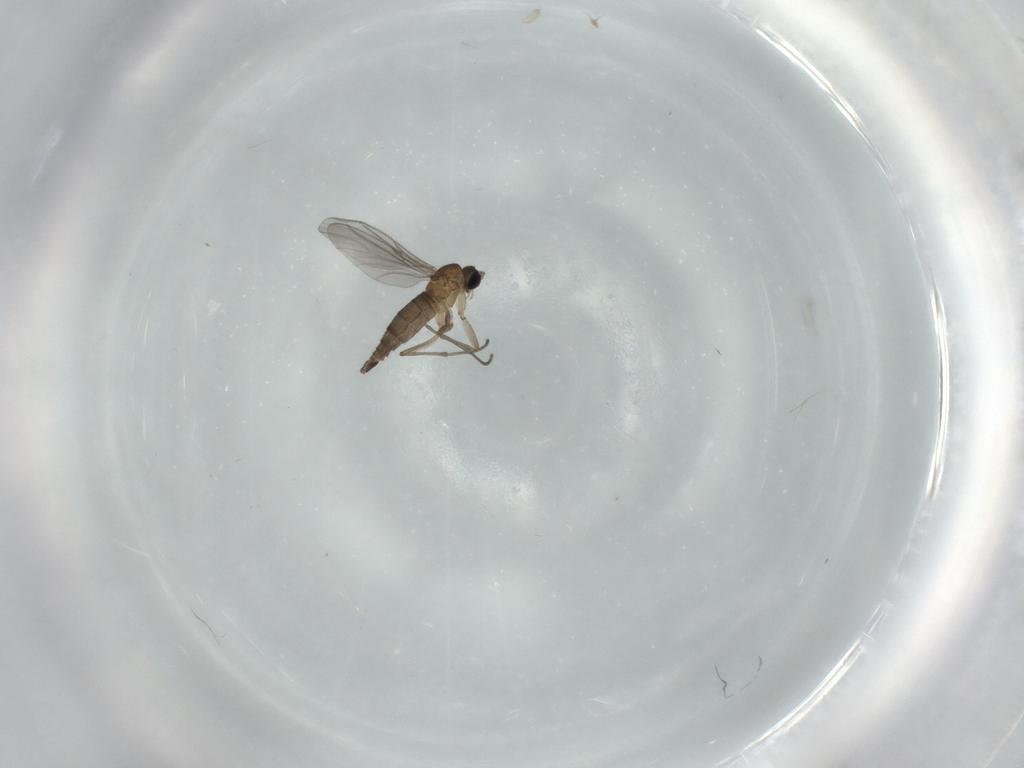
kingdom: Animalia
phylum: Arthropoda
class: Insecta
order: Diptera
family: Sciaridae
